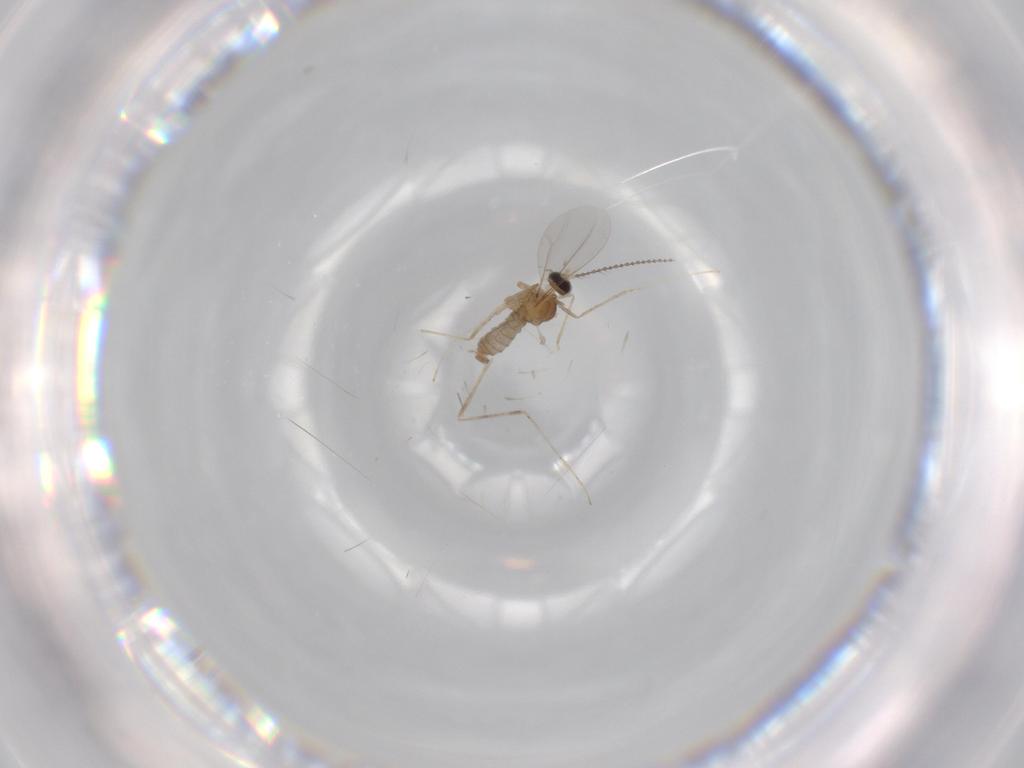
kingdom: Animalia
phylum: Arthropoda
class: Insecta
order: Diptera
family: Cecidomyiidae
